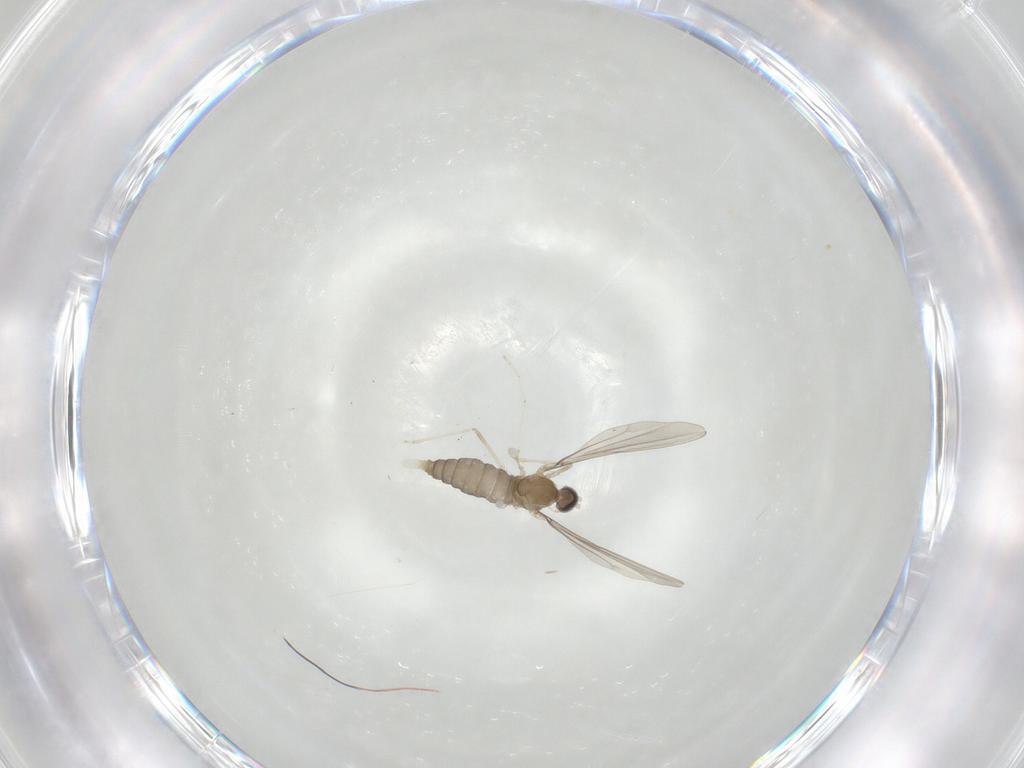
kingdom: Animalia
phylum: Arthropoda
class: Insecta
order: Diptera
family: Cecidomyiidae
